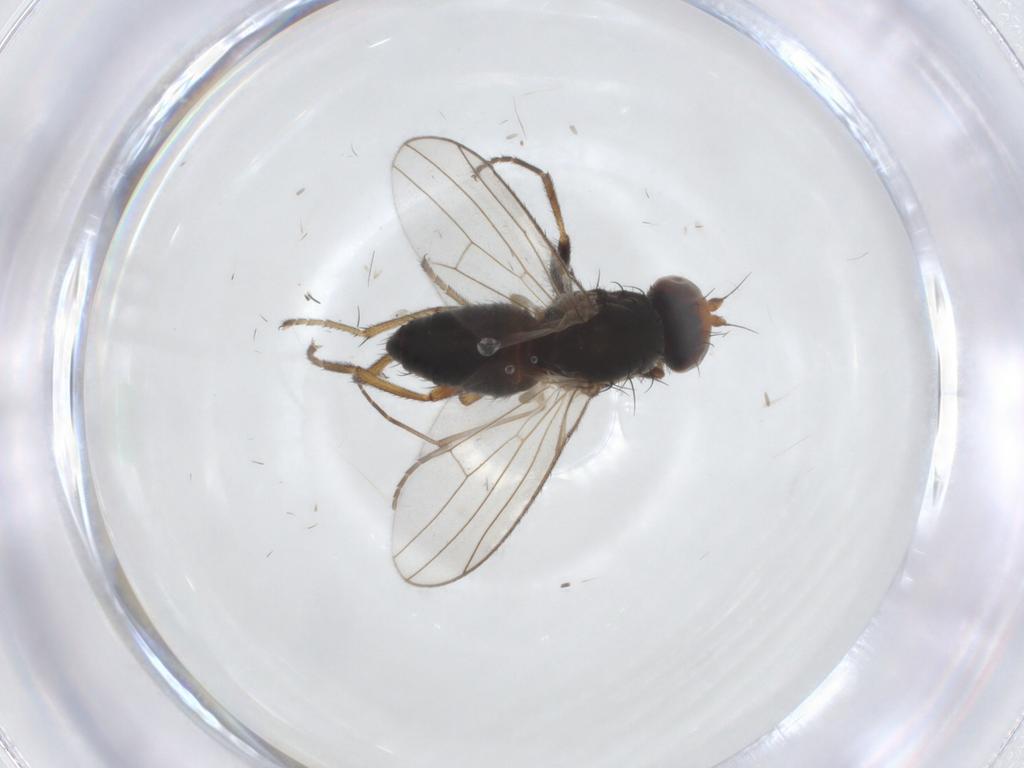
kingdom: Animalia
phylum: Arthropoda
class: Insecta
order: Diptera
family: Heleomyzidae
